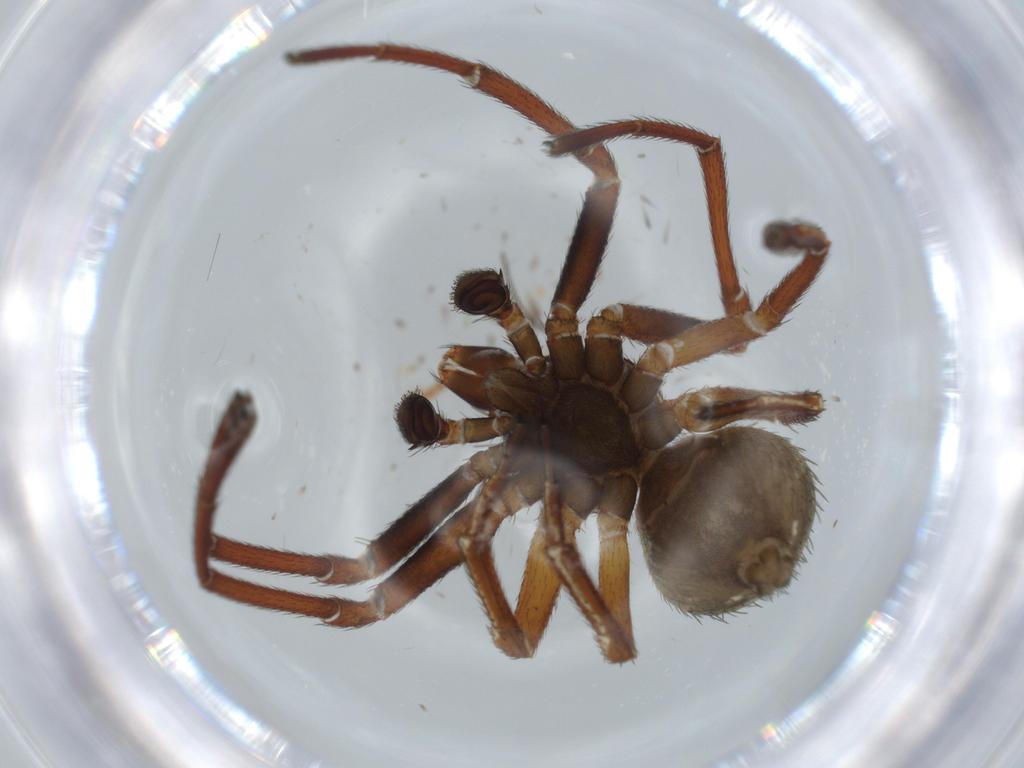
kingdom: Animalia
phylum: Arthropoda
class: Arachnida
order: Araneae
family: Thomisidae
